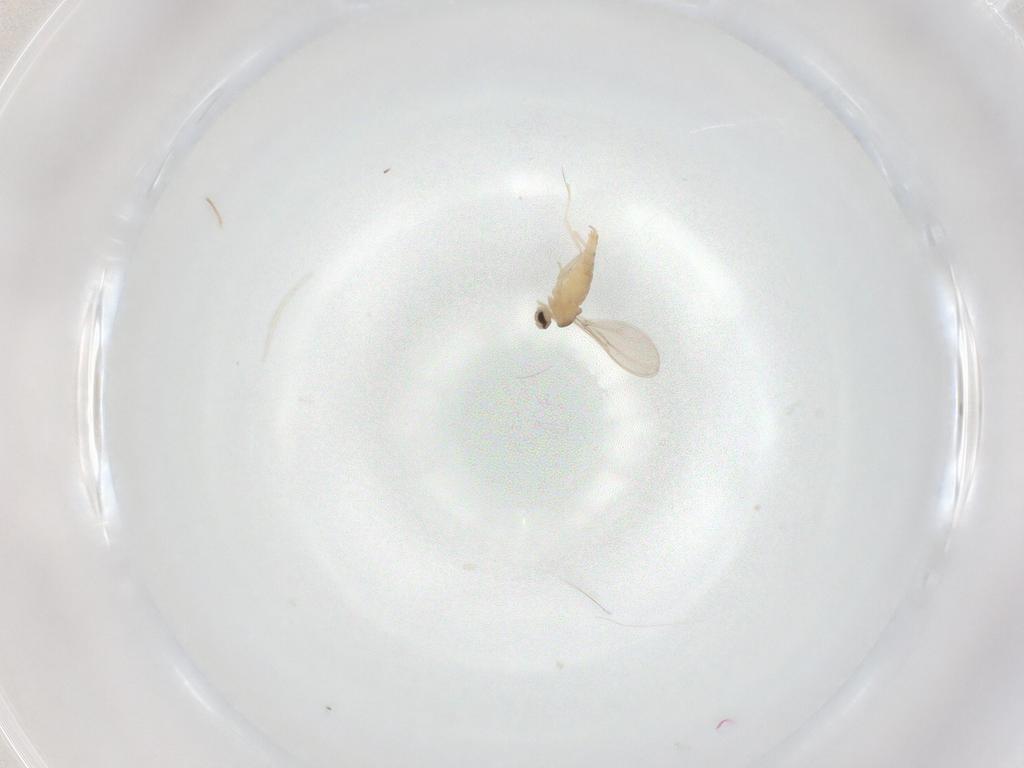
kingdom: Animalia
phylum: Arthropoda
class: Insecta
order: Diptera
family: Cecidomyiidae
